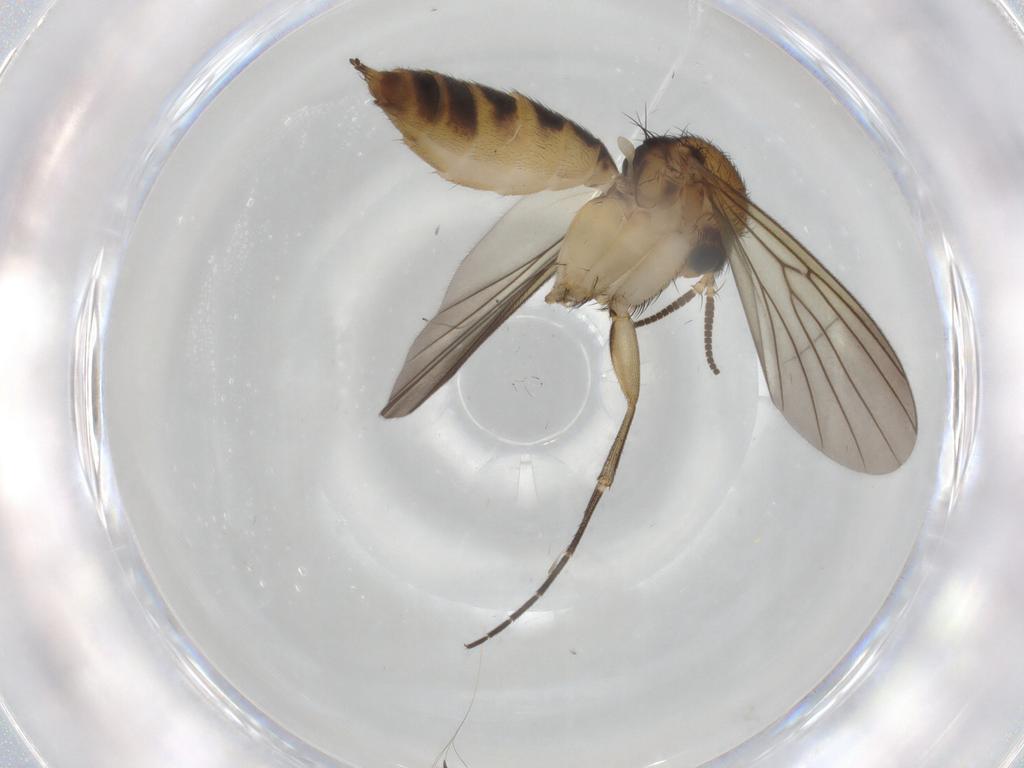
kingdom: Animalia
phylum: Arthropoda
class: Insecta
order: Diptera
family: Mycetophilidae
